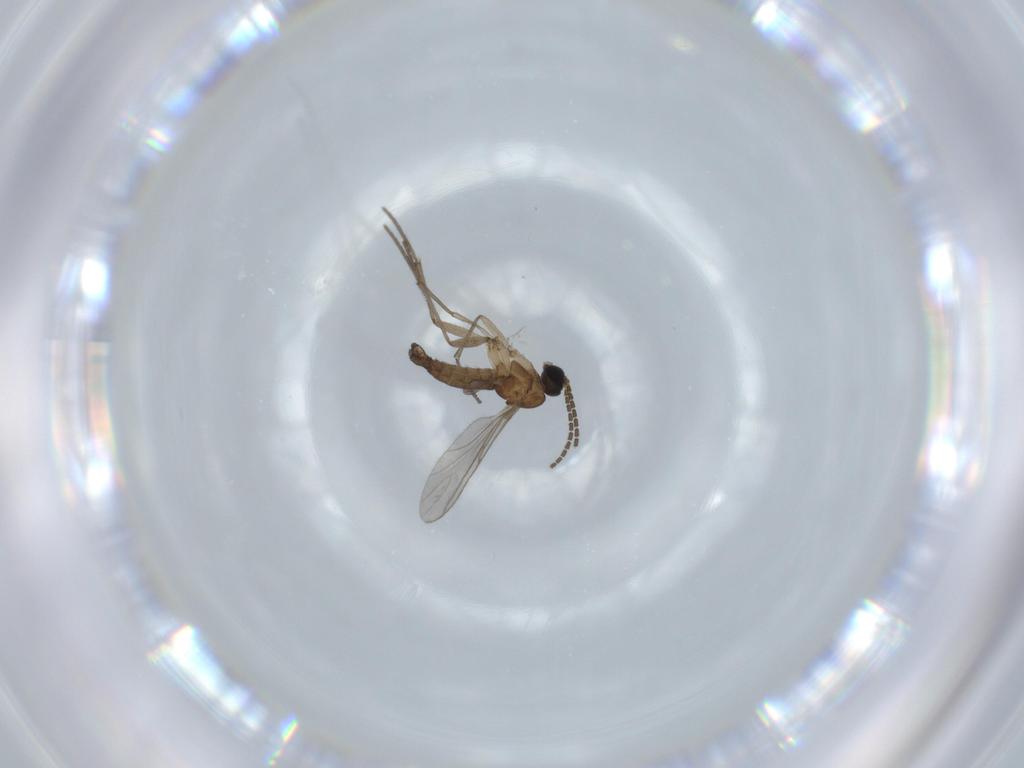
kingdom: Animalia
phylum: Arthropoda
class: Insecta
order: Diptera
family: Sciaridae
